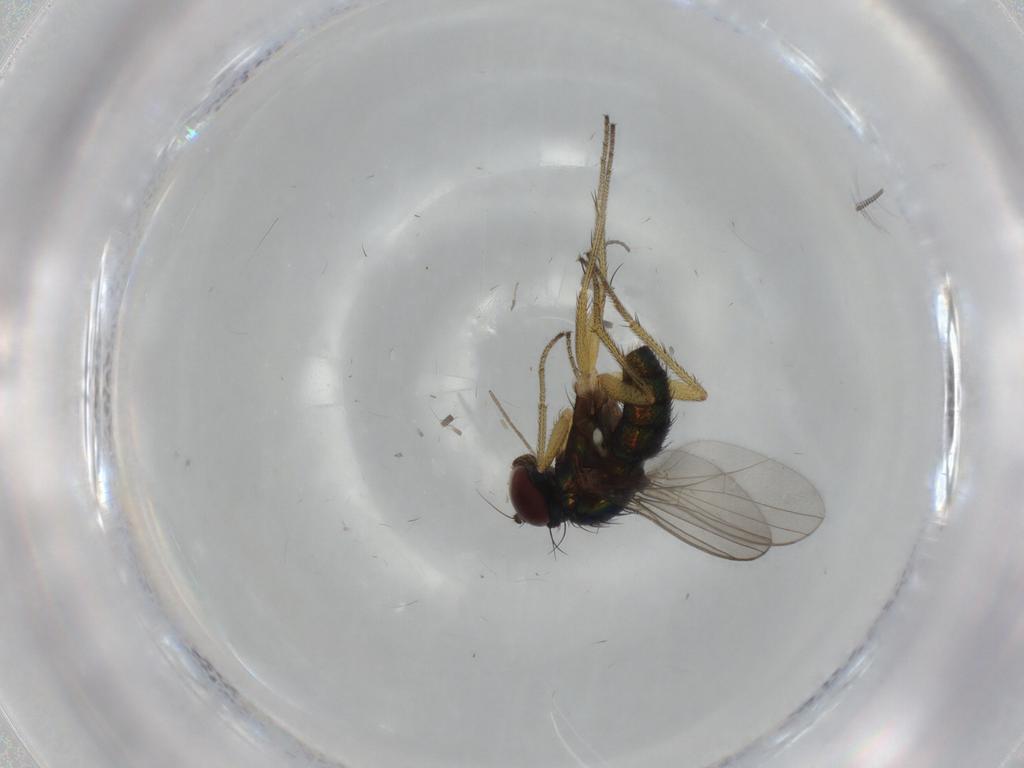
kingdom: Animalia
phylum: Arthropoda
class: Insecta
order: Diptera
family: Sciaridae
